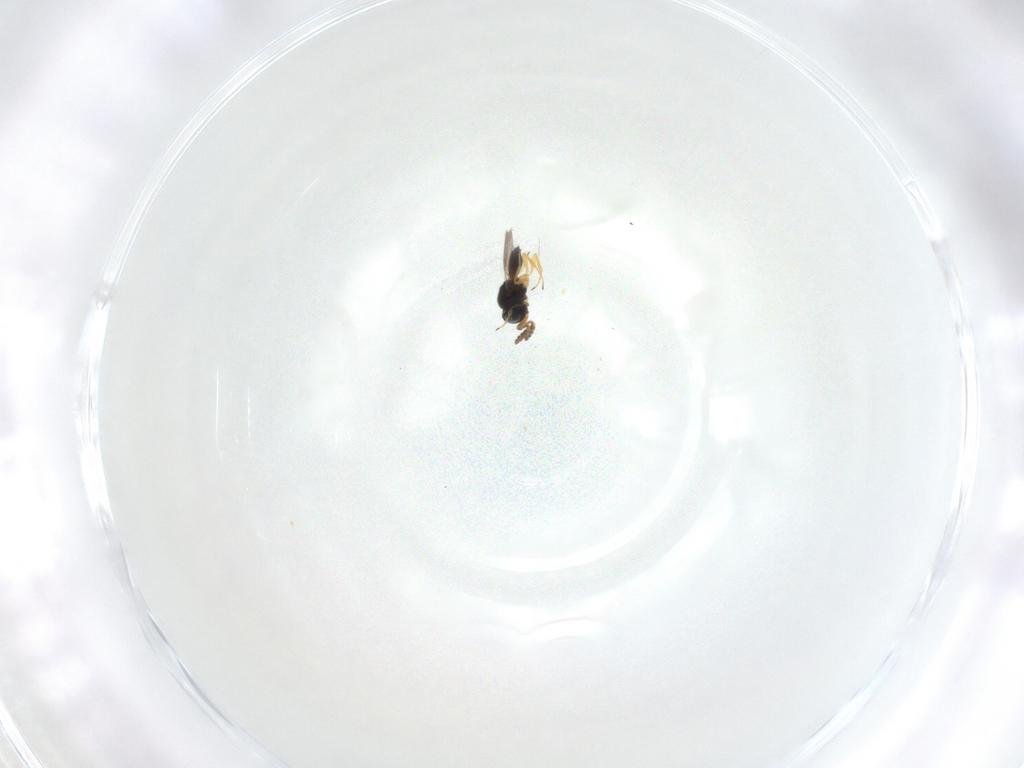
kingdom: Animalia
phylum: Arthropoda
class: Insecta
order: Hymenoptera
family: Scelionidae
